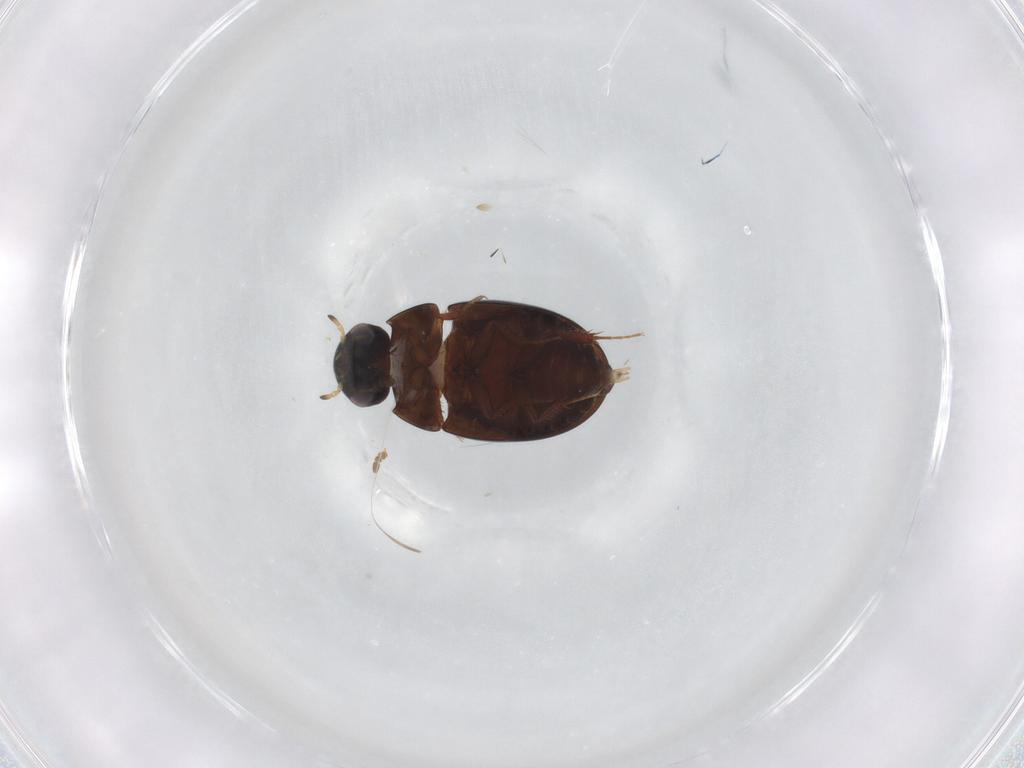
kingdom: Animalia
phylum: Arthropoda
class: Insecta
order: Coleoptera
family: Hydrophilidae
